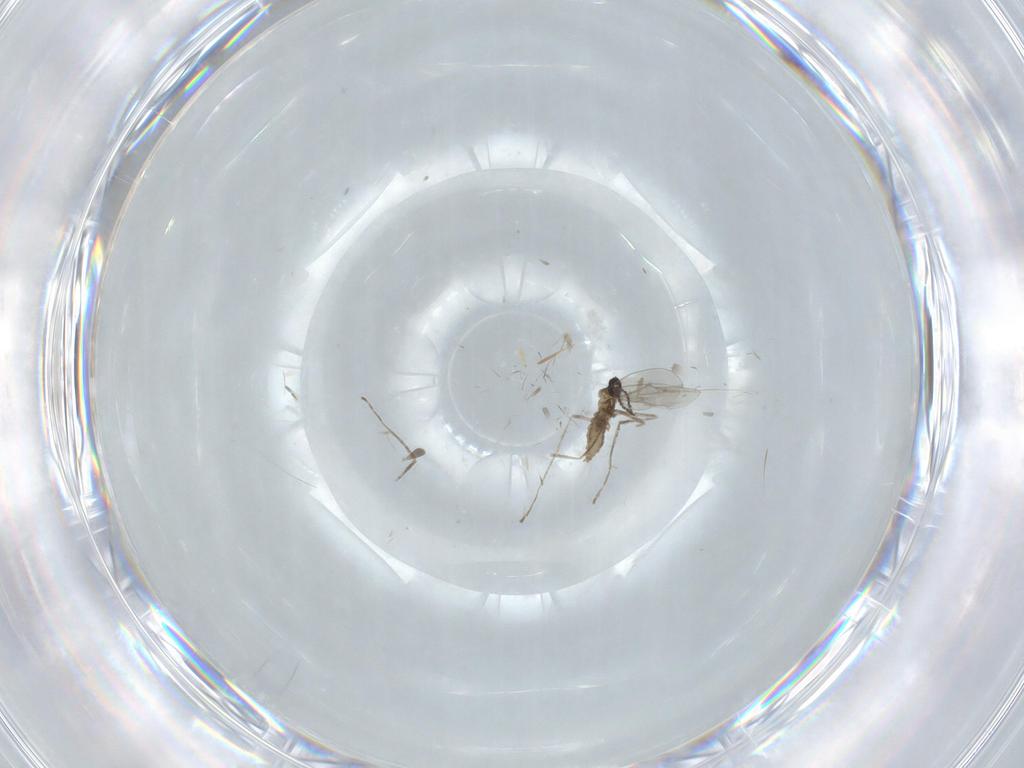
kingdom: Animalia
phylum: Arthropoda
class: Insecta
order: Diptera
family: Cecidomyiidae
